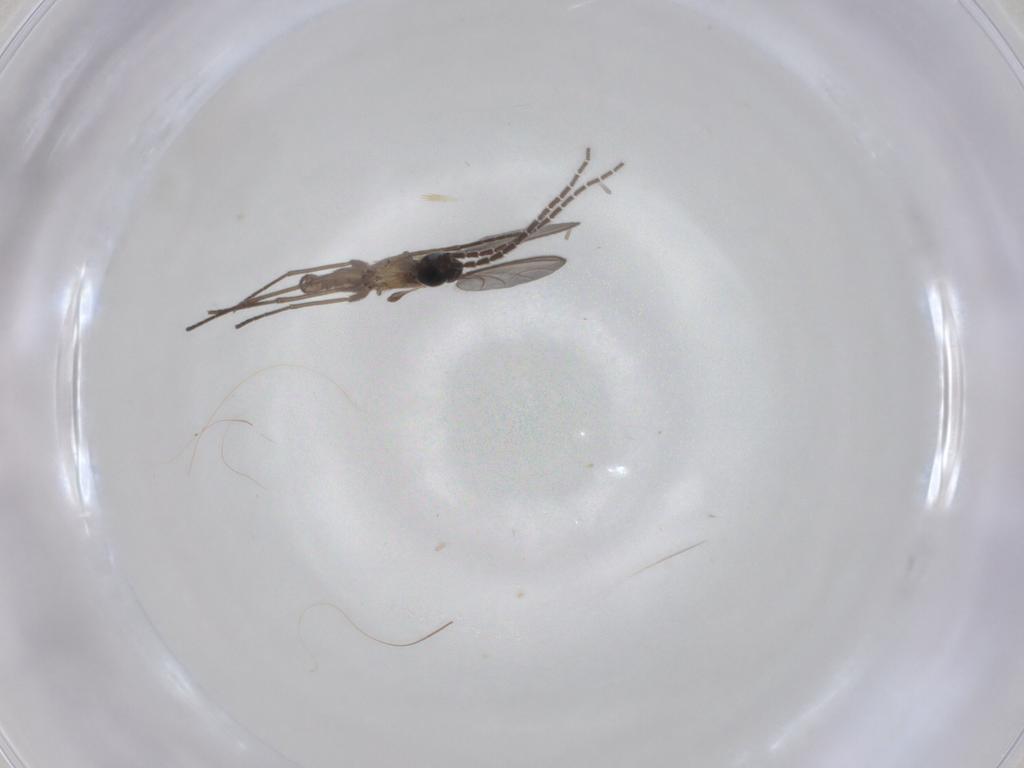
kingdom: Animalia
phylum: Arthropoda
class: Insecta
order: Diptera
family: Sciaridae
